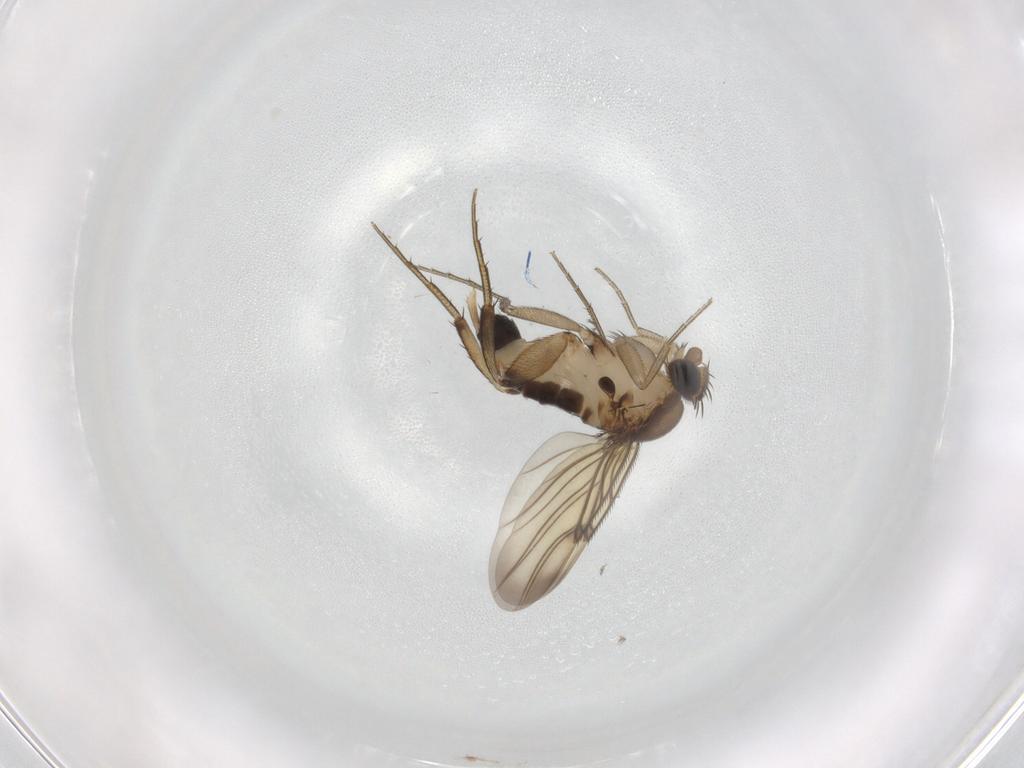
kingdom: Animalia
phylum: Arthropoda
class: Insecta
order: Diptera
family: Phoridae
